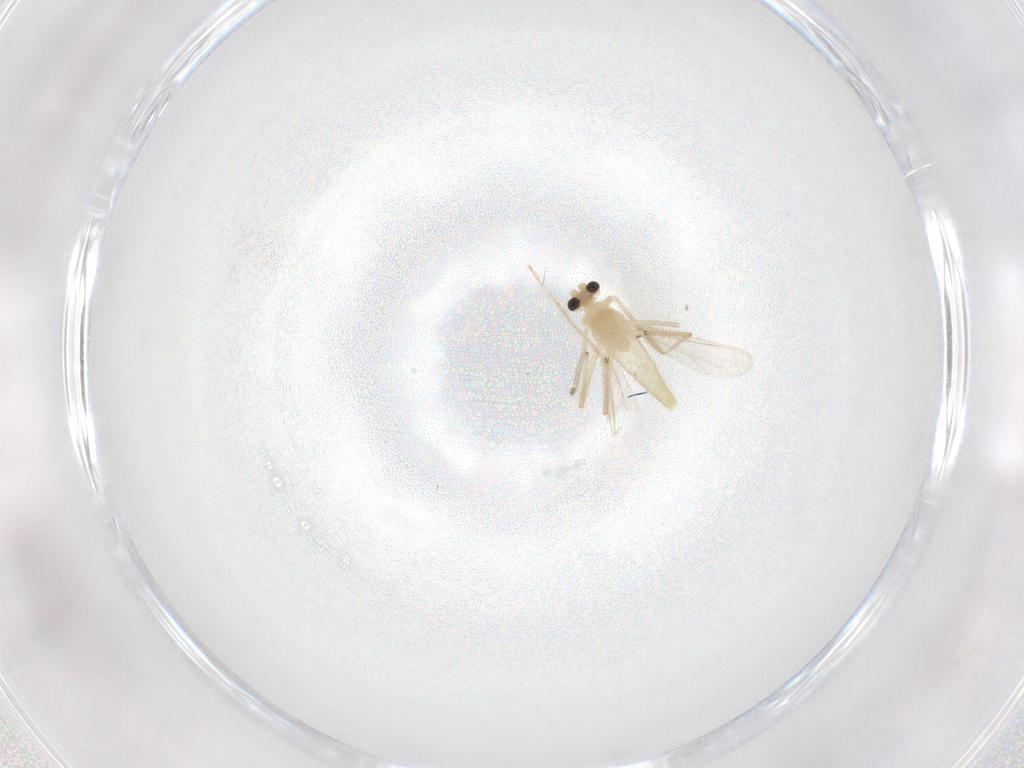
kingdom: Animalia
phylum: Arthropoda
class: Insecta
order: Diptera
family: Chironomidae
